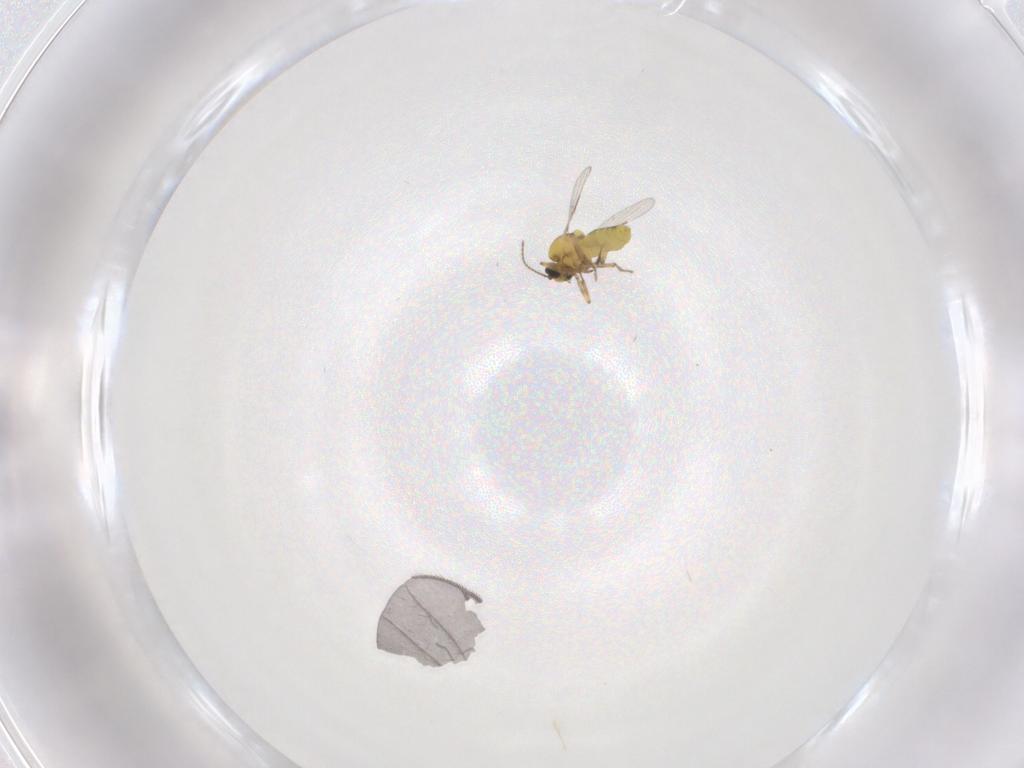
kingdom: Animalia
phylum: Arthropoda
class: Insecta
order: Diptera
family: Ceratopogonidae
